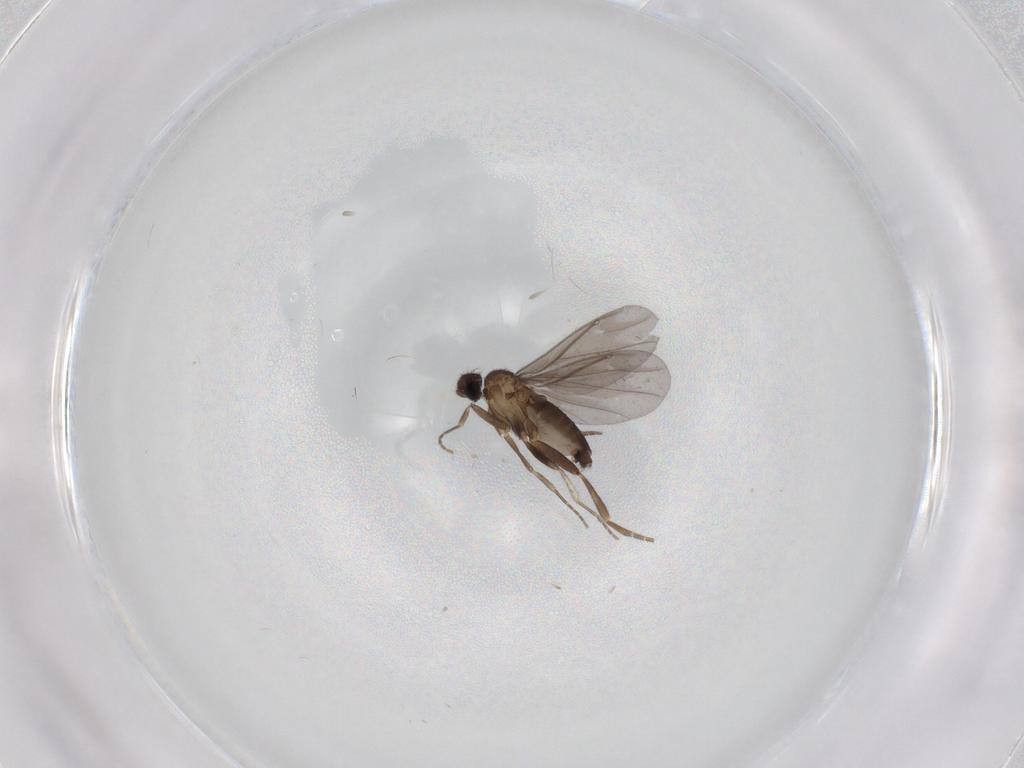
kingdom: Animalia
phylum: Arthropoda
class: Insecta
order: Diptera
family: Phoridae
